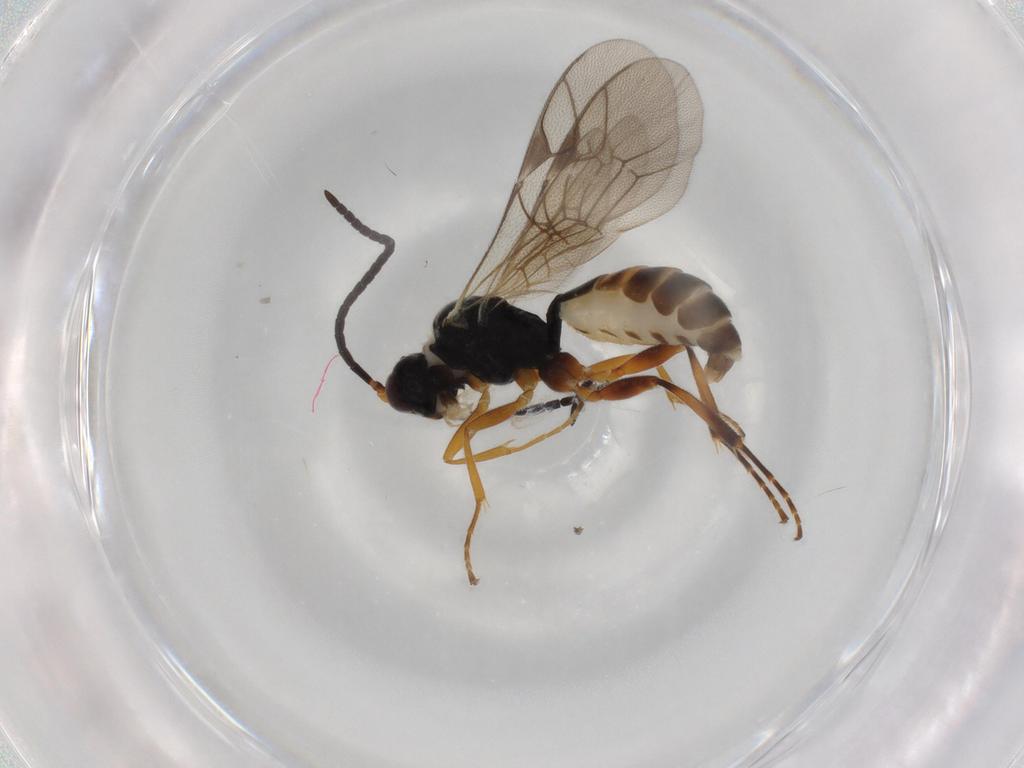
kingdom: Animalia
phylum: Arthropoda
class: Insecta
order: Hymenoptera
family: Ichneumonidae
